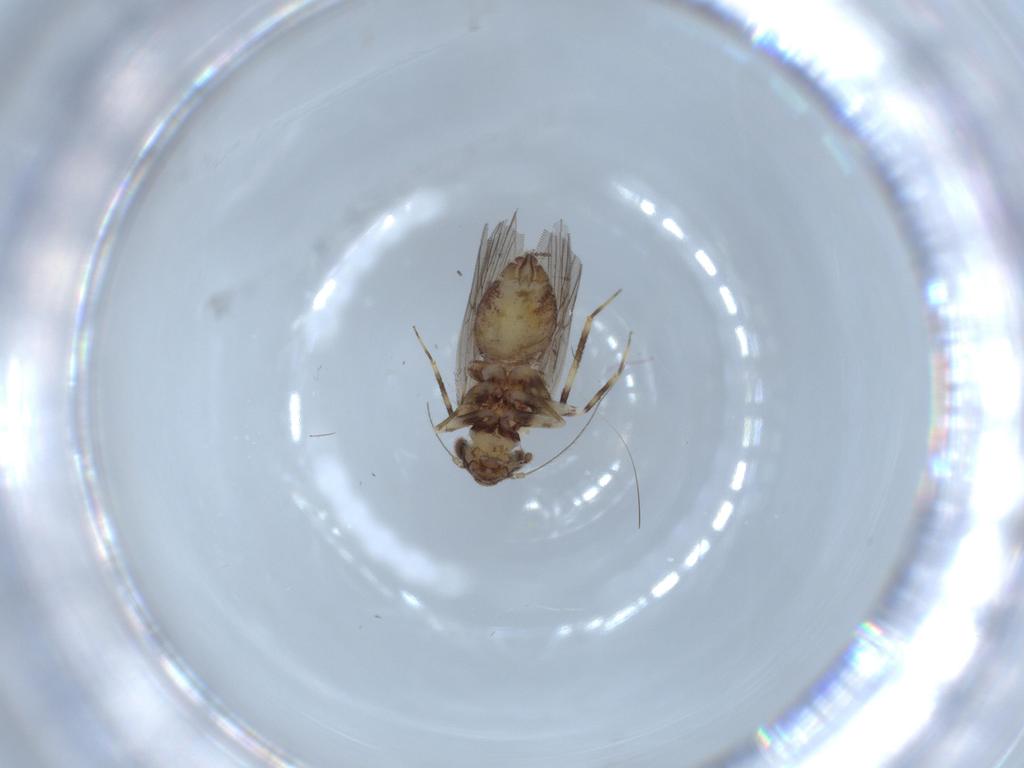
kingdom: Animalia
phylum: Arthropoda
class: Insecta
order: Psocodea
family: Lepidopsocidae
